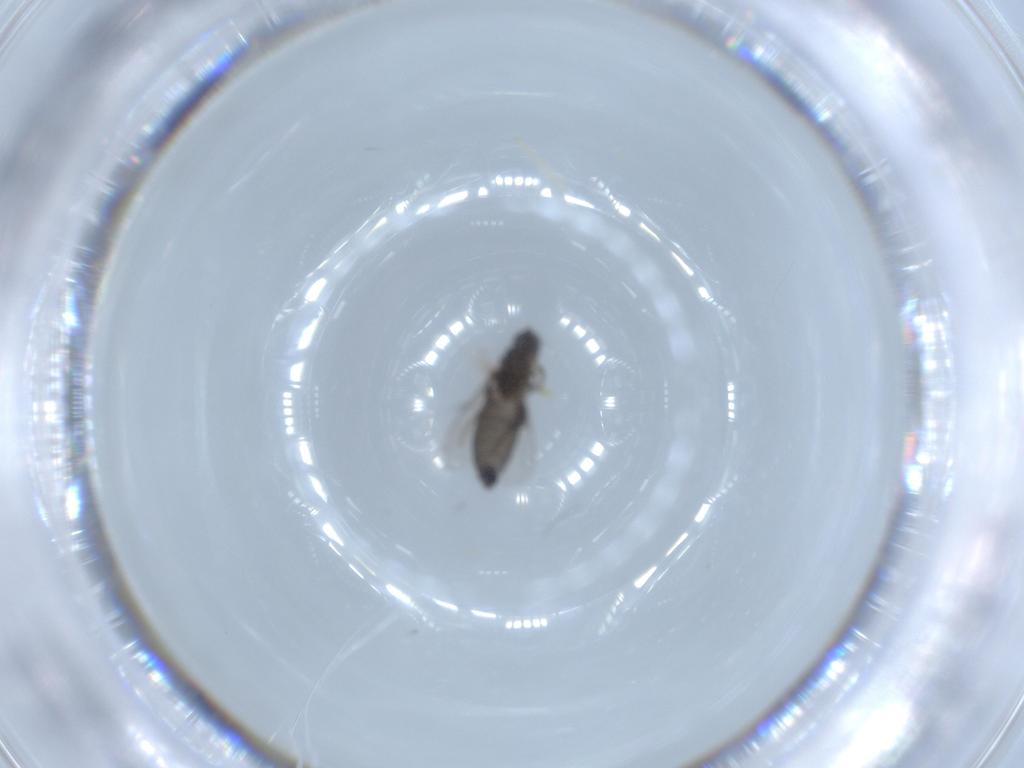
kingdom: Animalia
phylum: Arthropoda
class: Insecta
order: Diptera
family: Phoridae
